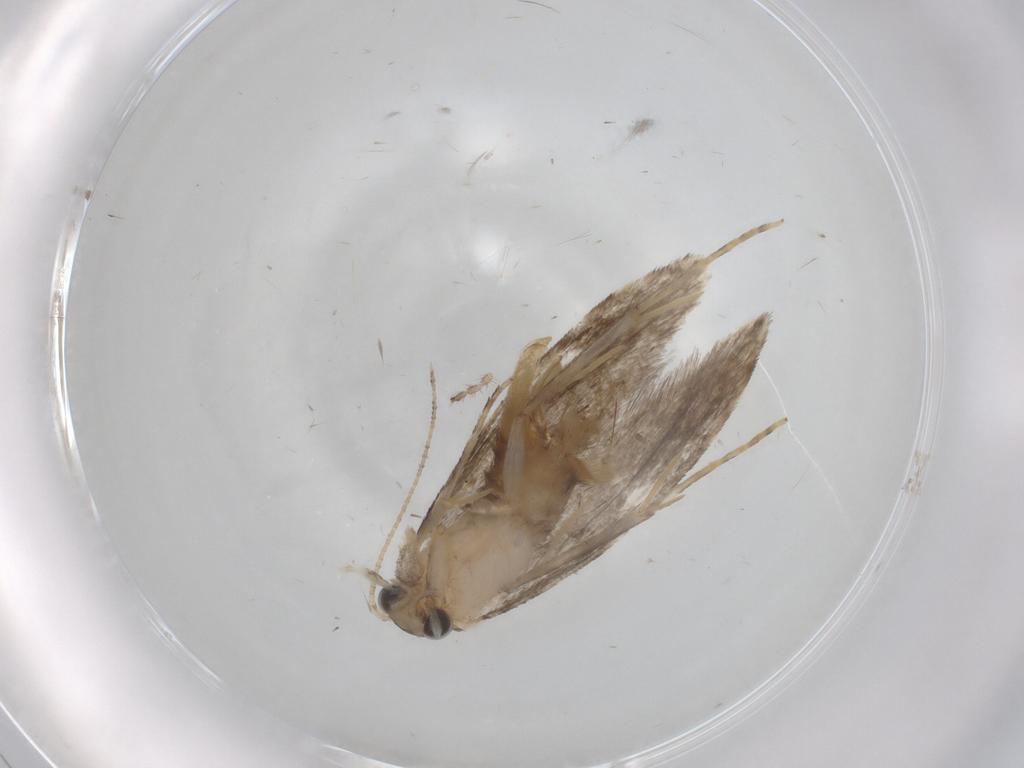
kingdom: Animalia
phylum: Arthropoda
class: Insecta
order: Lepidoptera
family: Tineidae
